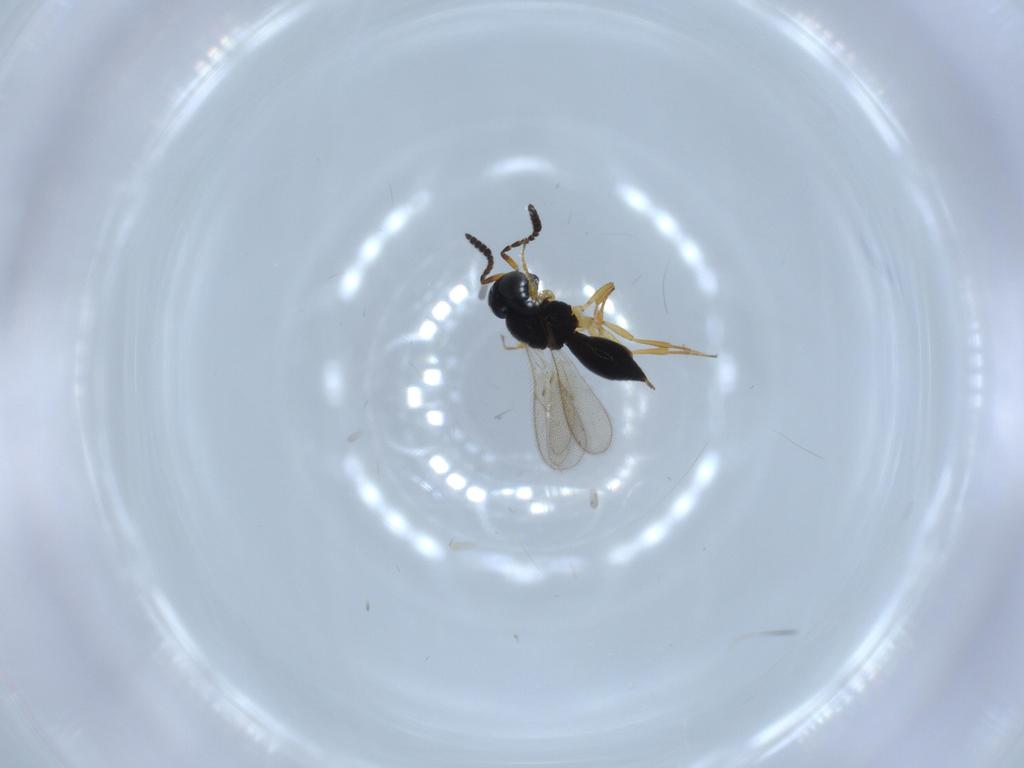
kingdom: Animalia
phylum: Arthropoda
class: Insecta
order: Hymenoptera
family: Scelionidae
